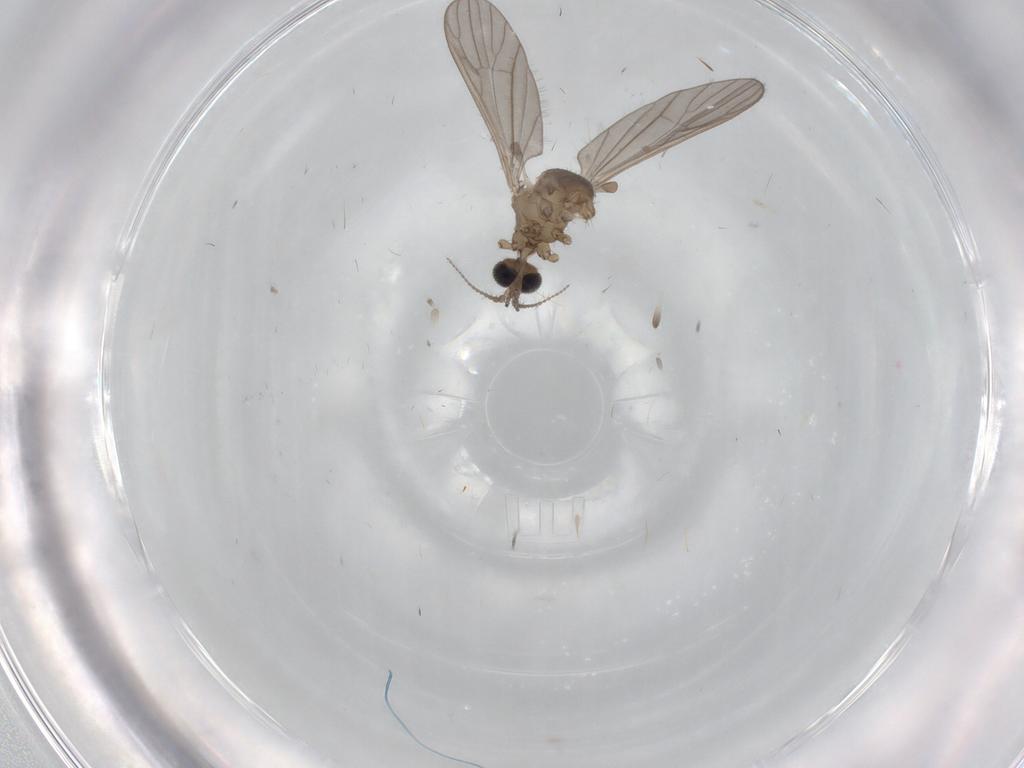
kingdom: Animalia
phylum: Arthropoda
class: Insecta
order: Diptera
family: Limoniidae
